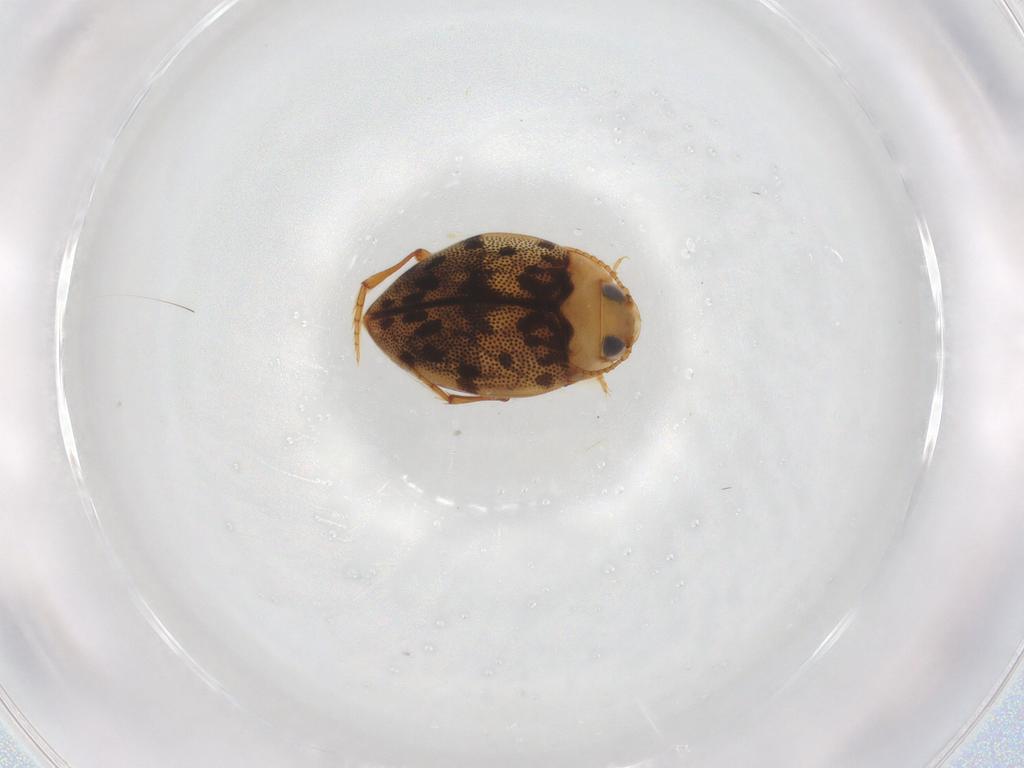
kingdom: Animalia
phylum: Arthropoda
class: Insecta
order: Coleoptera
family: Dytiscidae
